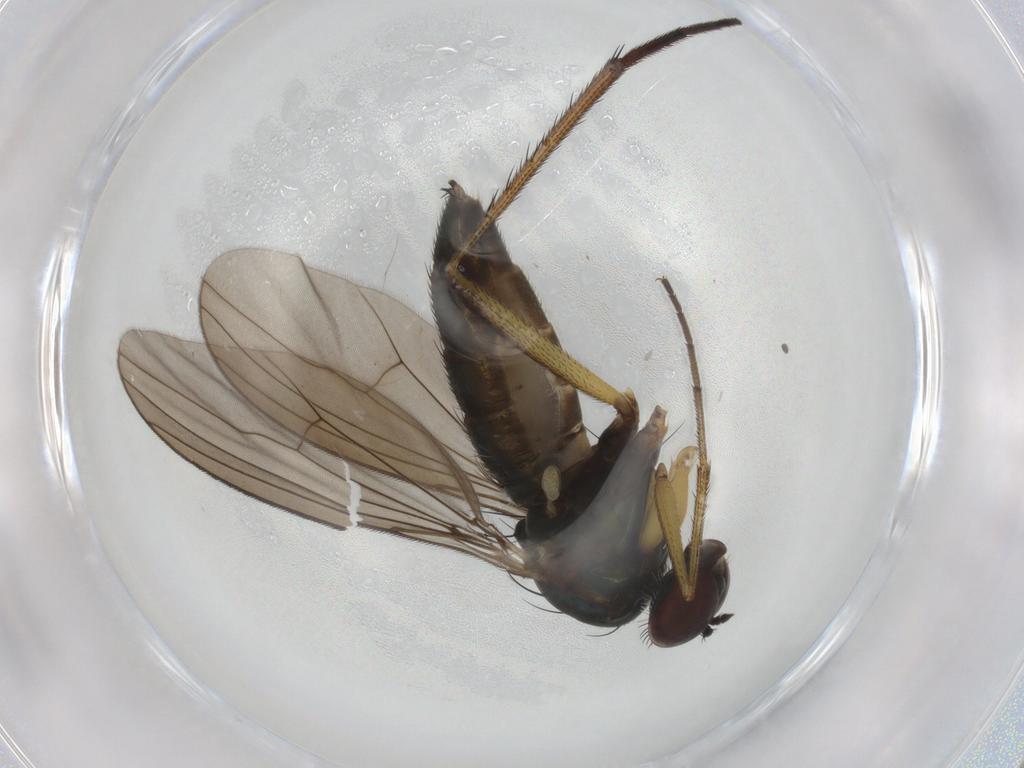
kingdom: Animalia
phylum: Arthropoda
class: Insecta
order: Diptera
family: Dolichopodidae
